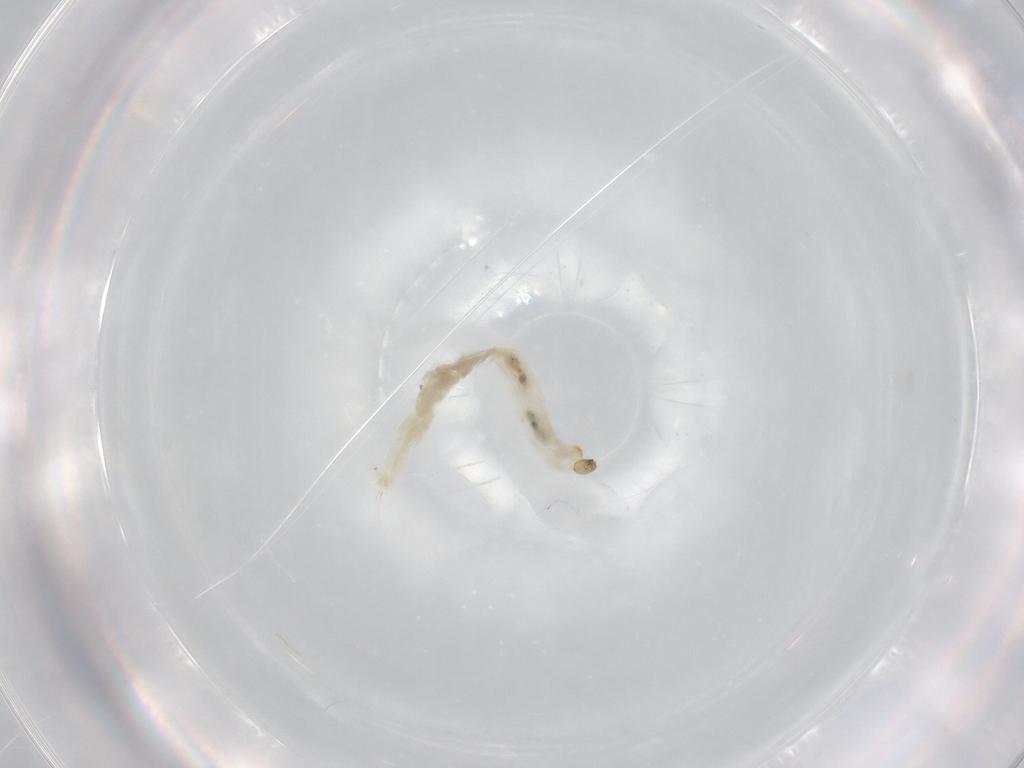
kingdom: Animalia
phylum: Arthropoda
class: Insecta
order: Diptera
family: Chironomidae
